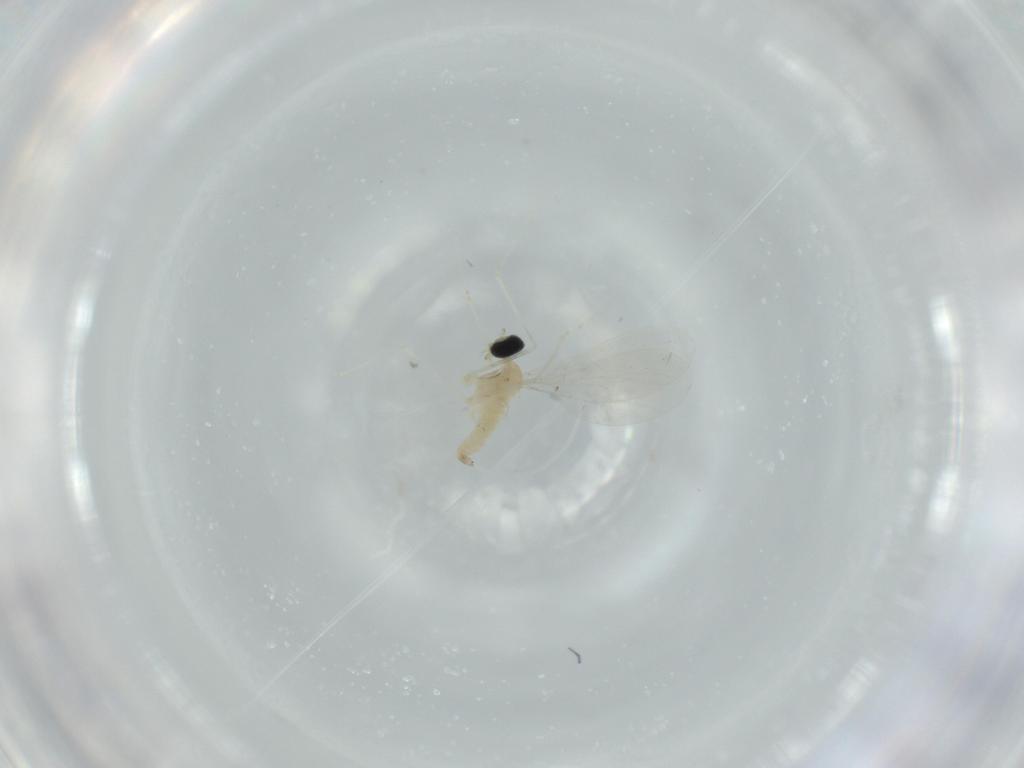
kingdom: Animalia
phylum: Arthropoda
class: Insecta
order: Diptera
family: Cecidomyiidae
